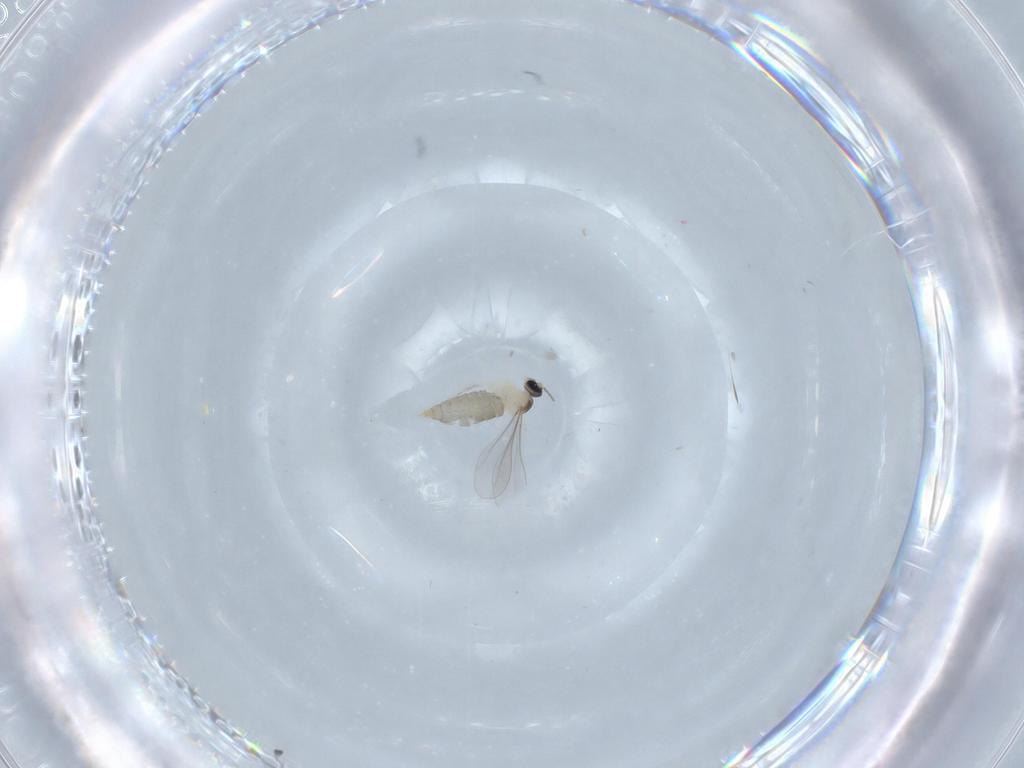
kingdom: Animalia
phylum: Arthropoda
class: Insecta
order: Diptera
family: Cecidomyiidae
